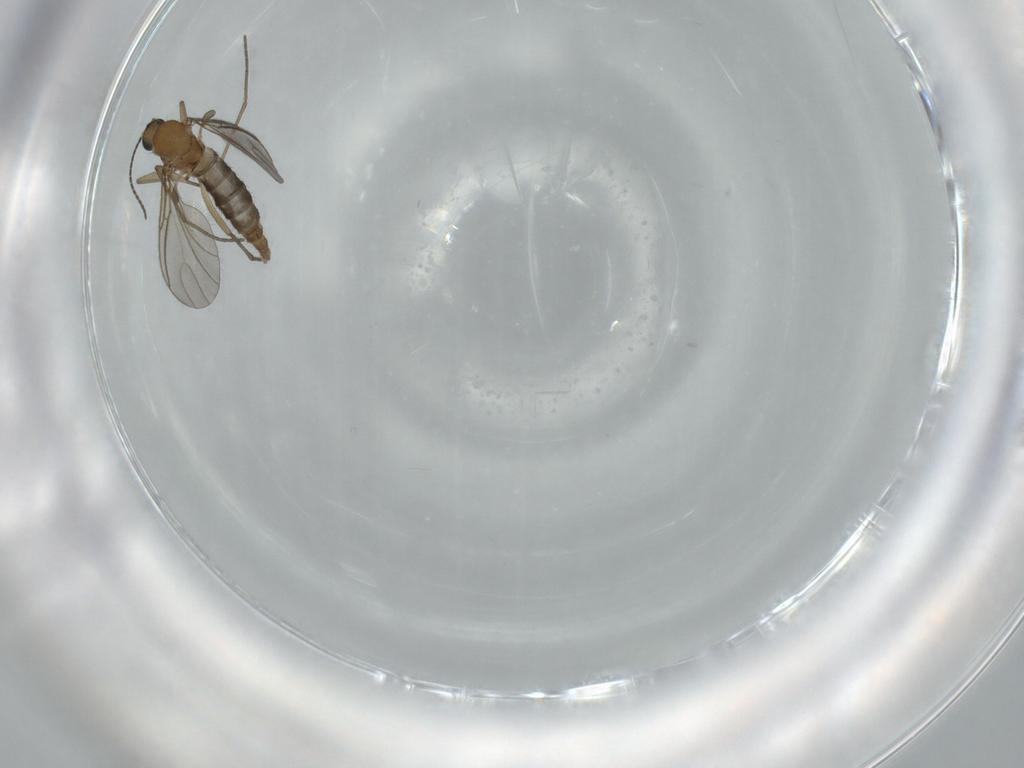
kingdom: Animalia
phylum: Arthropoda
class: Insecta
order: Diptera
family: Sciaridae
